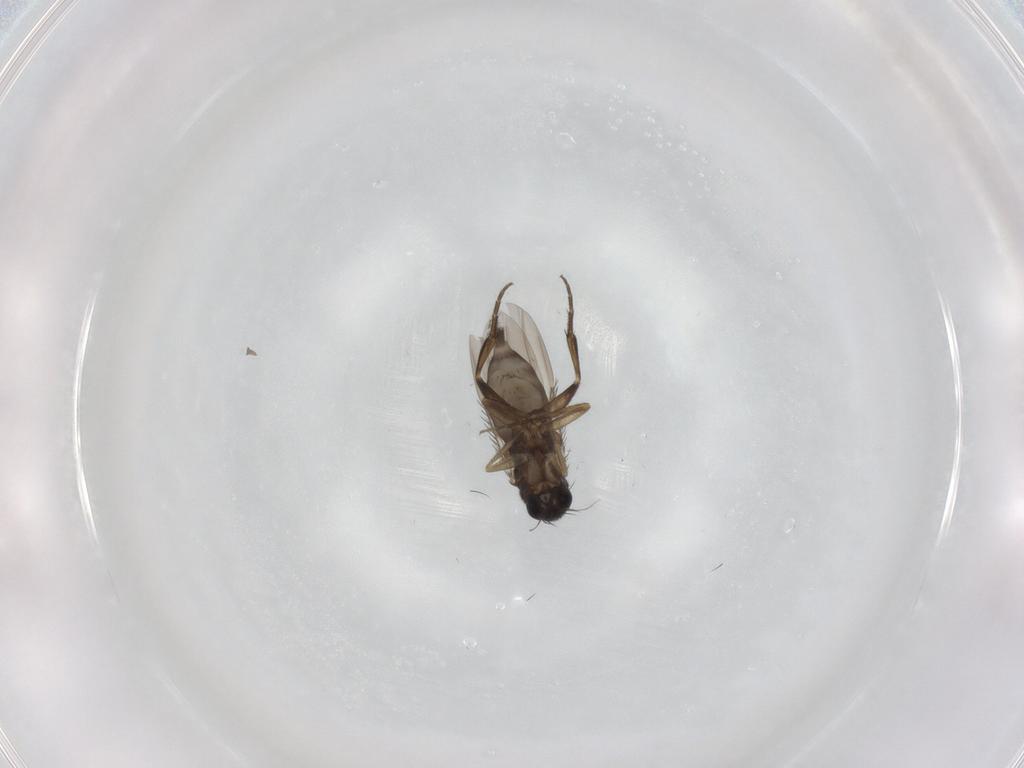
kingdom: Animalia
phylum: Arthropoda
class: Insecta
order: Diptera
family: Phoridae
